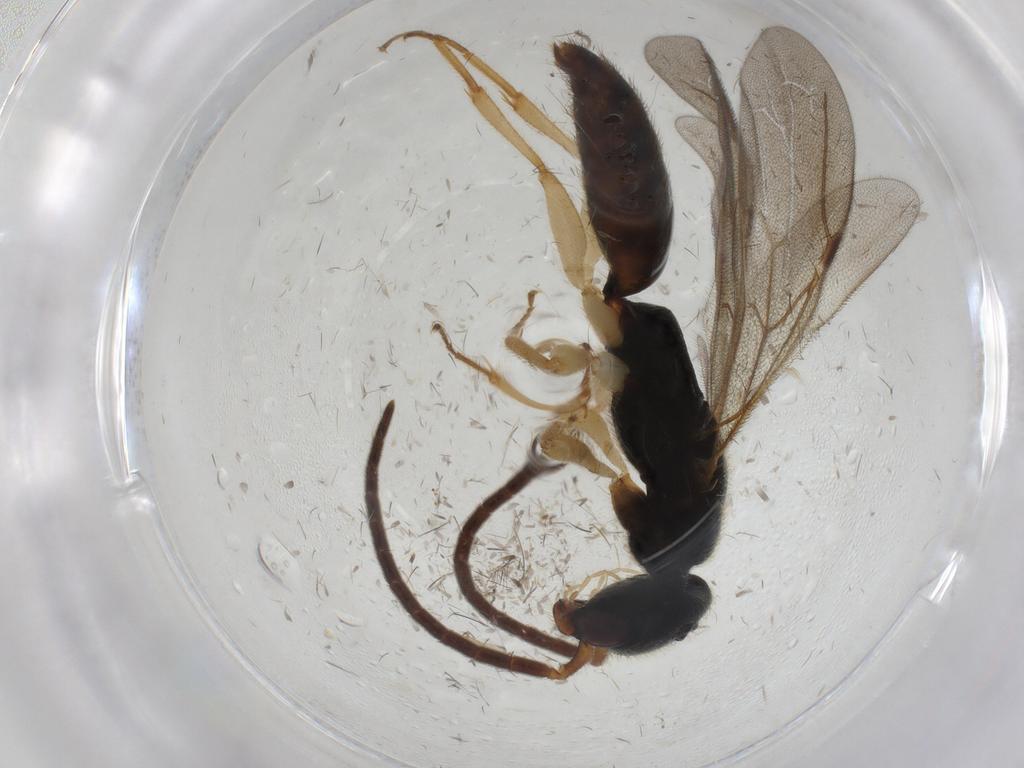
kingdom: Animalia
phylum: Arthropoda
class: Insecta
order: Hymenoptera
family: Bethylidae
